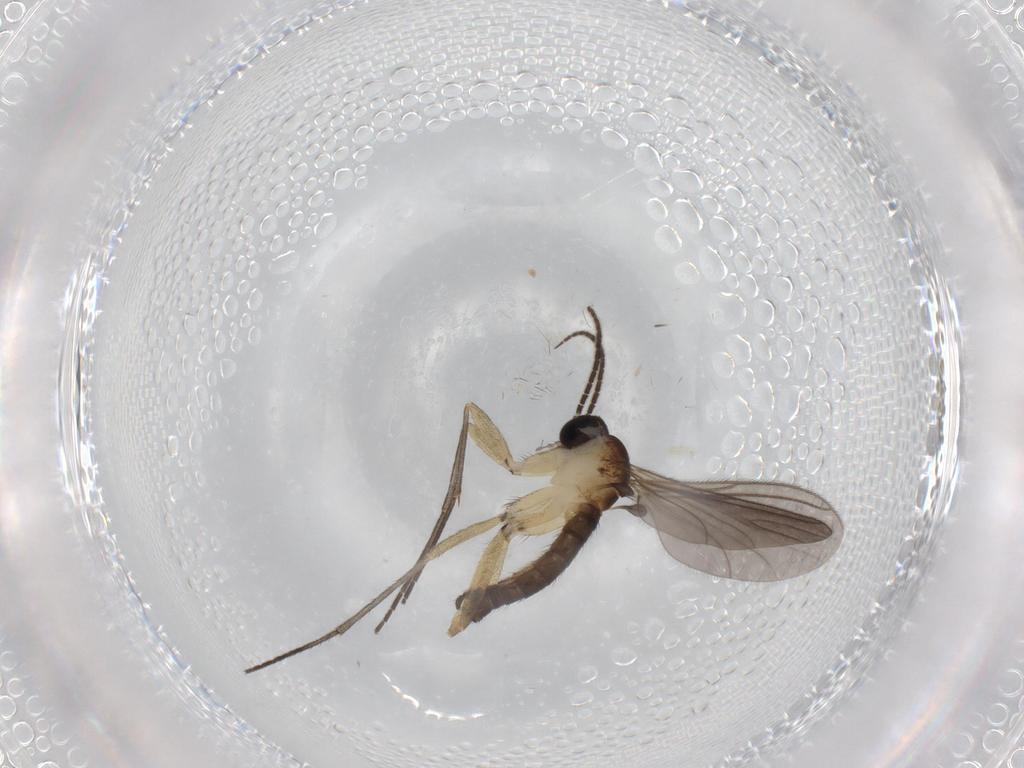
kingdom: Animalia
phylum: Arthropoda
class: Insecta
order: Diptera
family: Sciaridae
